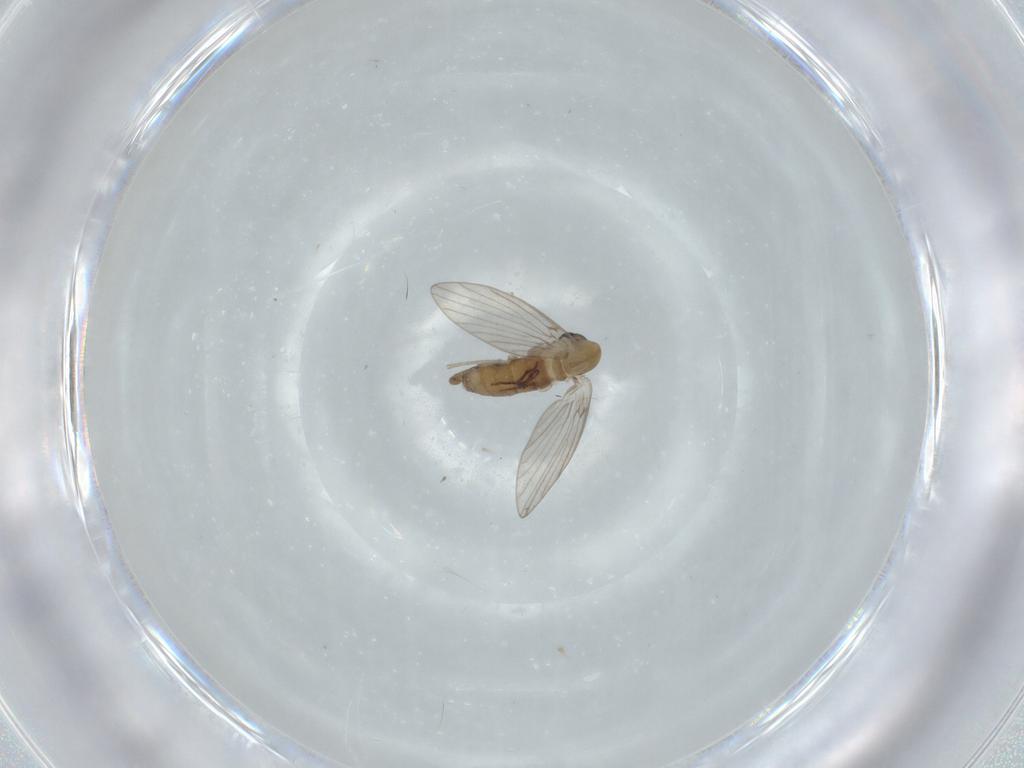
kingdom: Animalia
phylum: Arthropoda
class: Insecta
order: Diptera
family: Psychodidae
